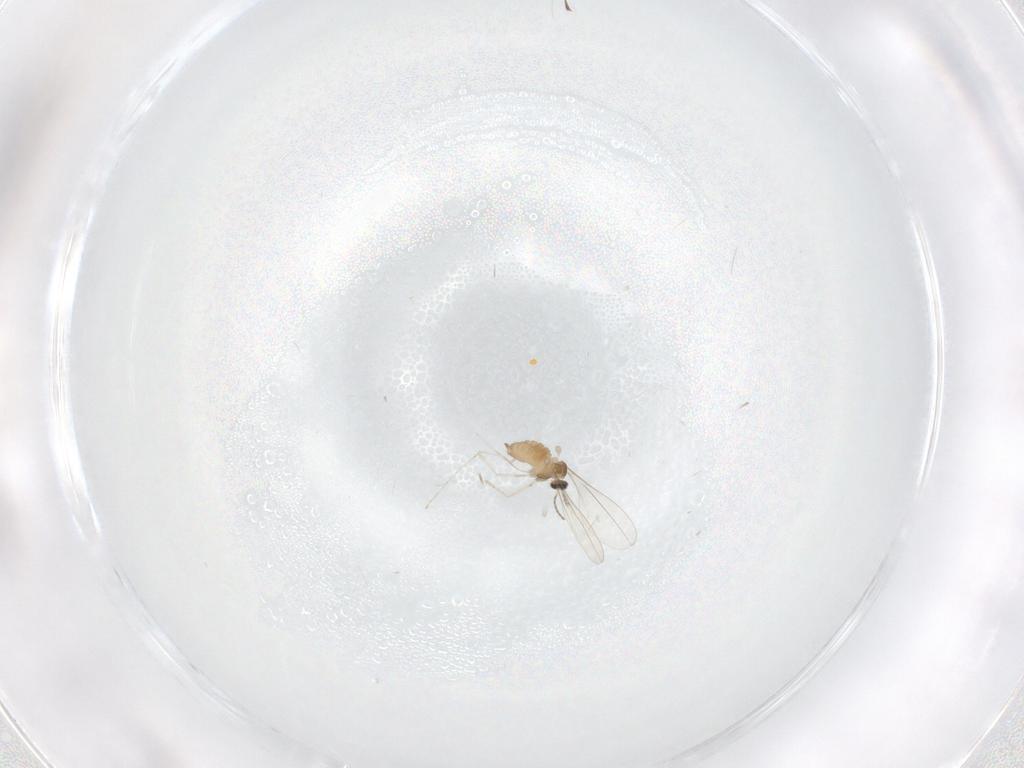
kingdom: Animalia
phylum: Arthropoda
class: Insecta
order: Diptera
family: Cecidomyiidae
